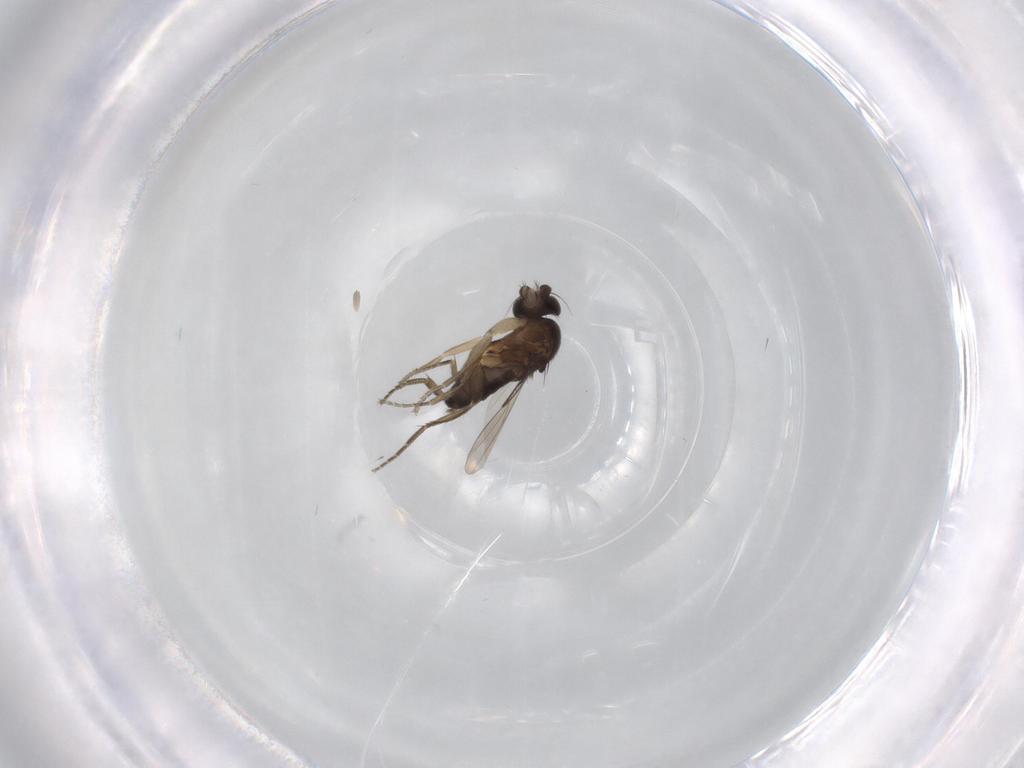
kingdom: Animalia
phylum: Arthropoda
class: Insecta
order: Diptera
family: Phoridae
